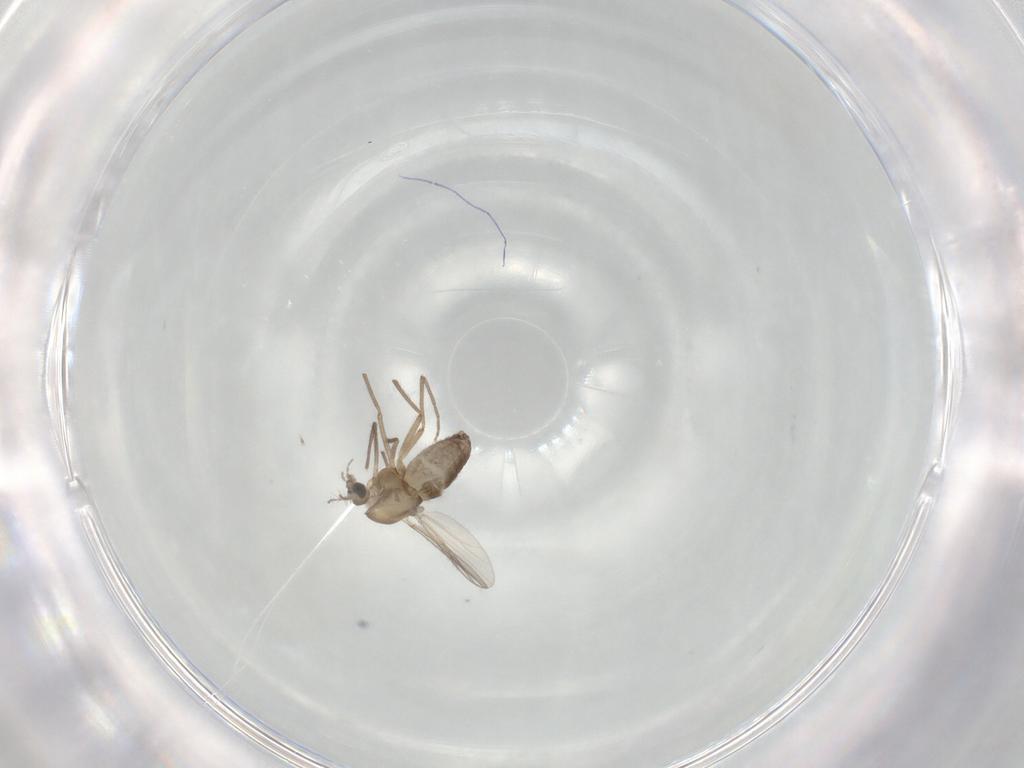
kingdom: Animalia
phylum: Arthropoda
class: Insecta
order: Diptera
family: Chironomidae
